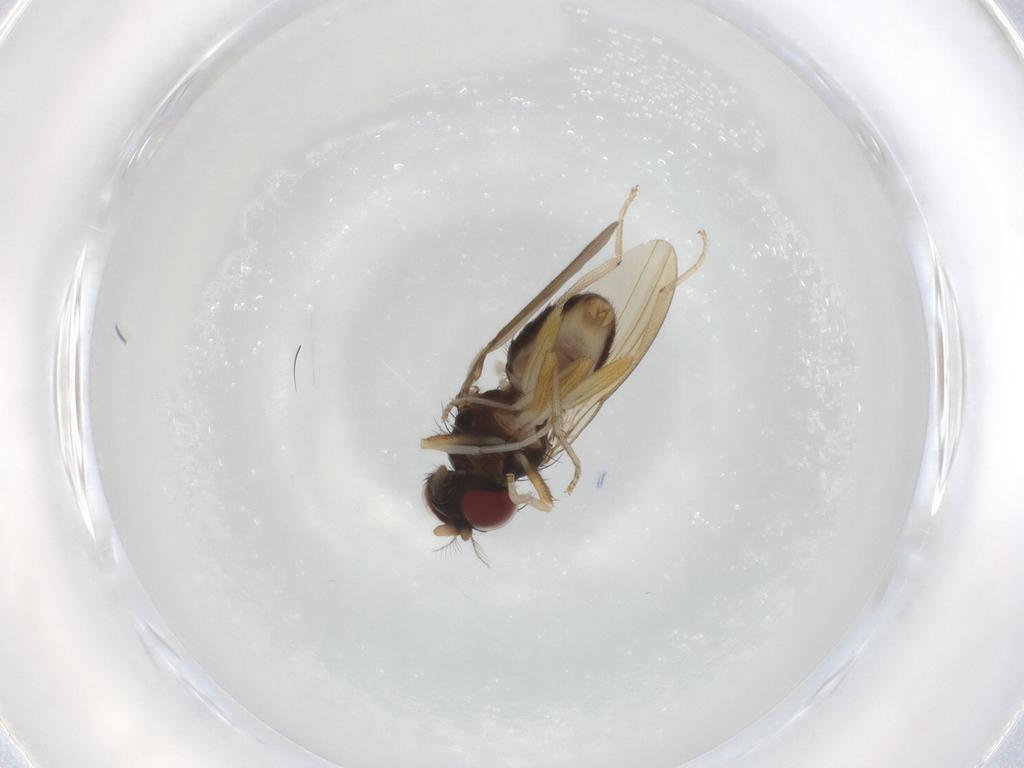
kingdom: Animalia
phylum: Arthropoda
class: Insecta
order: Diptera
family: Lauxaniidae
